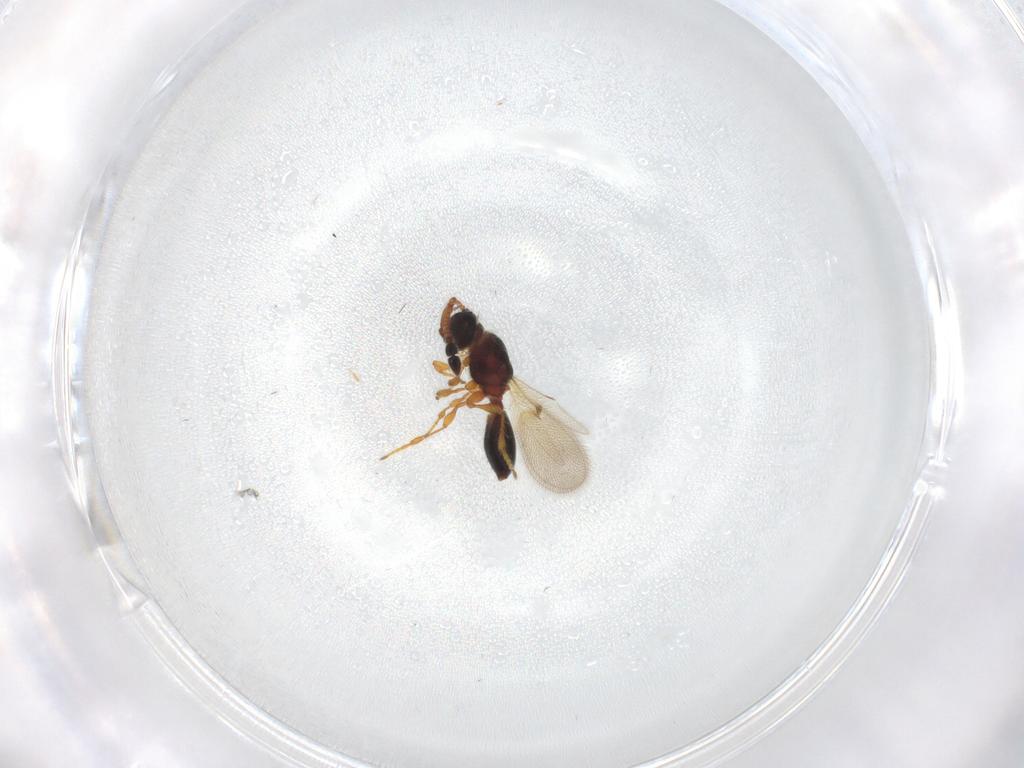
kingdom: Animalia
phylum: Arthropoda
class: Insecta
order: Hymenoptera
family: Diapriidae
